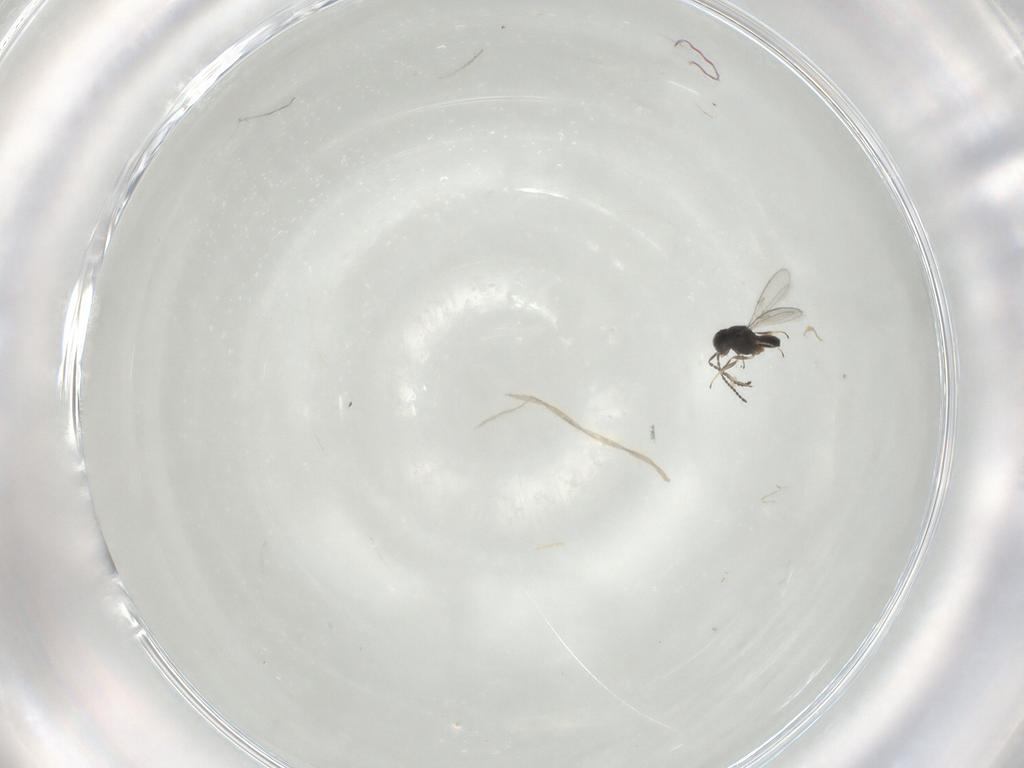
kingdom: Animalia
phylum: Arthropoda
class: Insecta
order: Hymenoptera
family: Scelionidae
